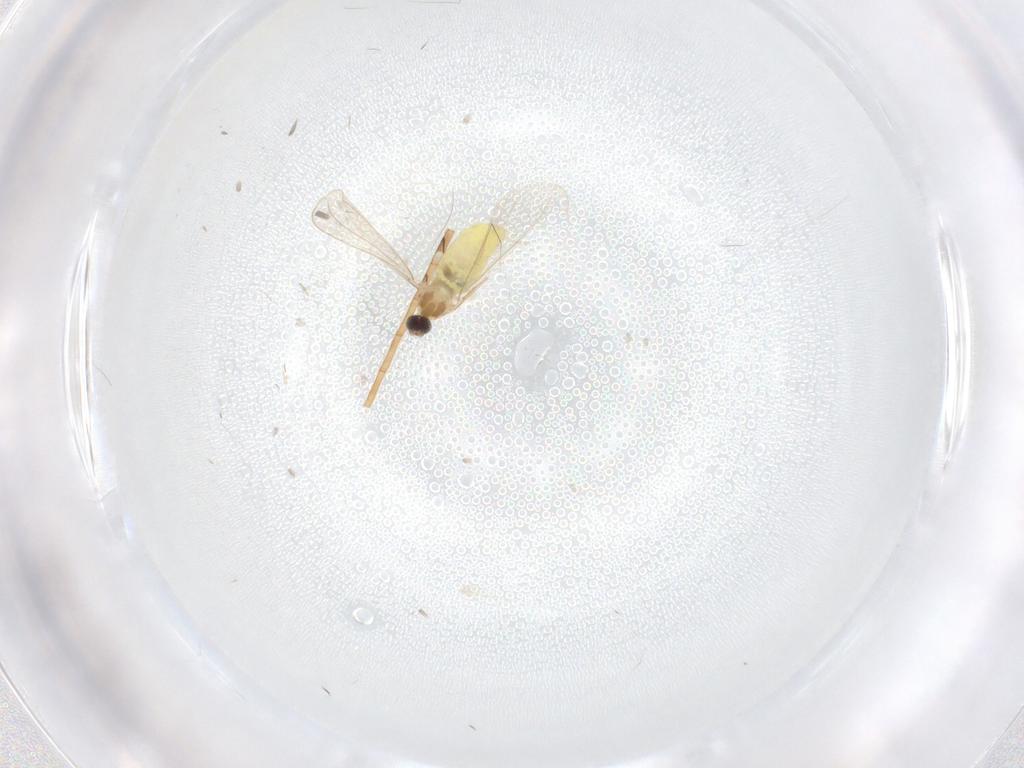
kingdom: Animalia
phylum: Arthropoda
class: Insecta
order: Diptera
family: Cecidomyiidae
